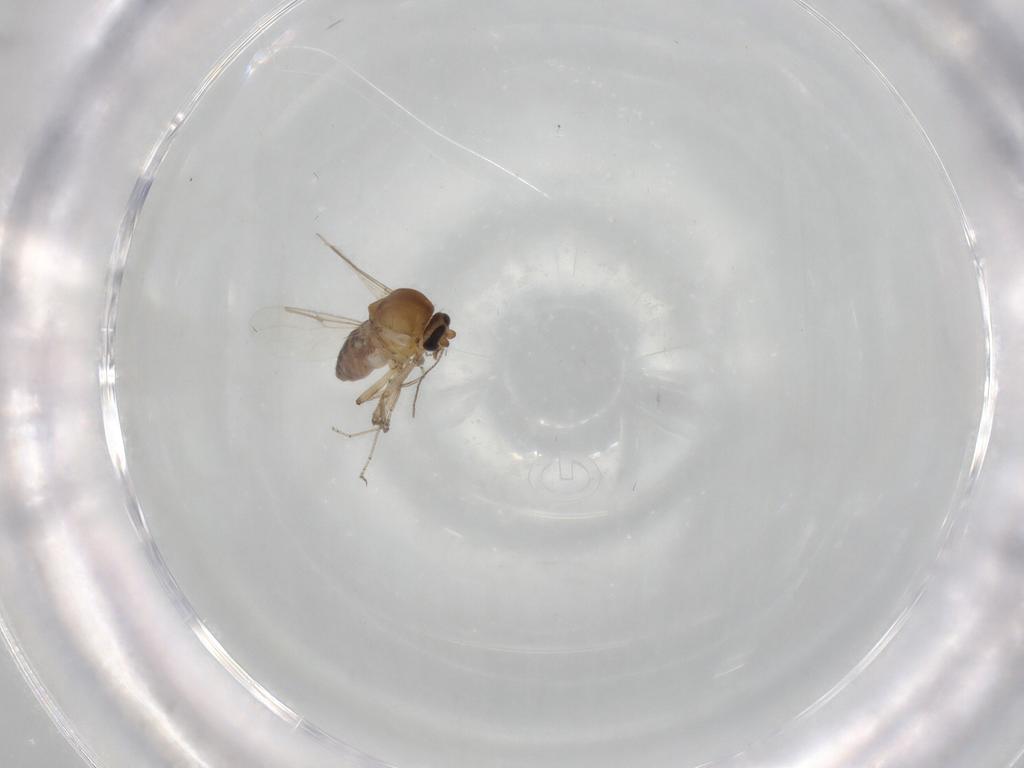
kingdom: Animalia
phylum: Arthropoda
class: Insecta
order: Diptera
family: Ceratopogonidae
